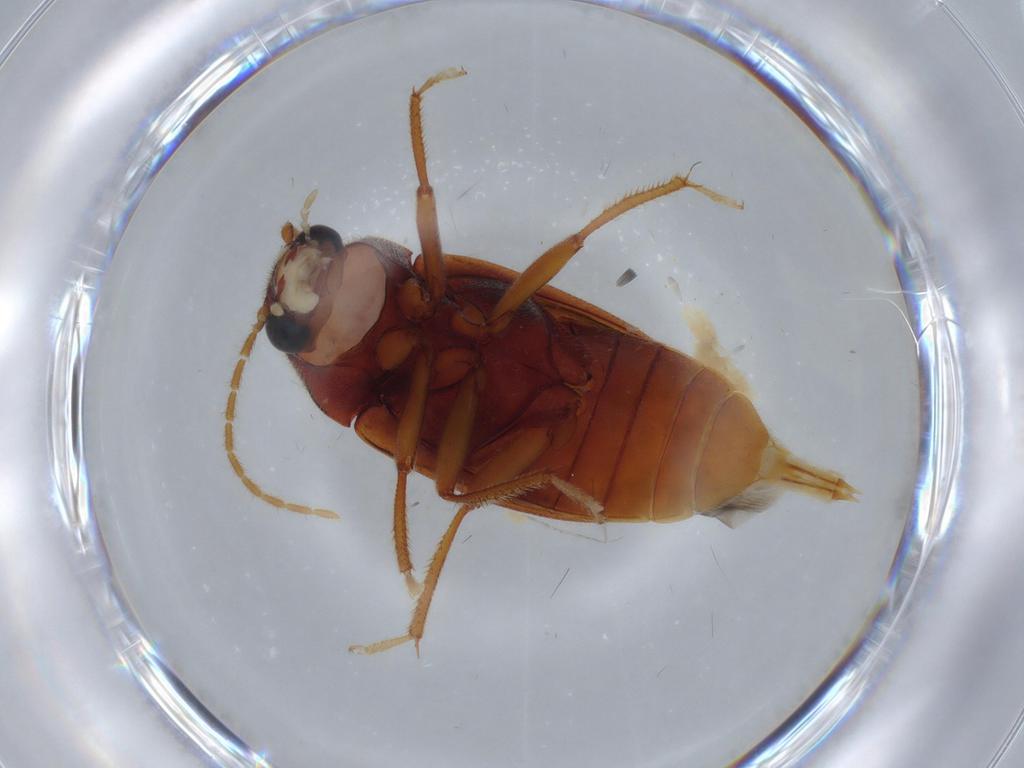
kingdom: Animalia
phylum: Arthropoda
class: Insecta
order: Coleoptera
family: Ptilodactylidae
